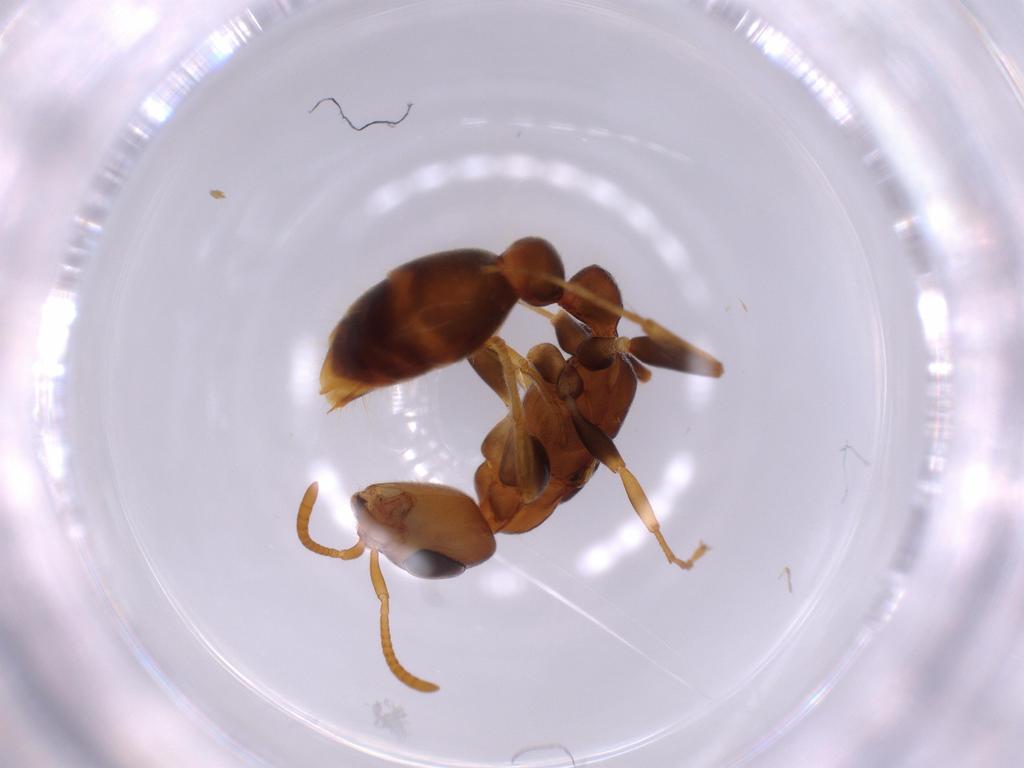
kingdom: Animalia
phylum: Arthropoda
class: Insecta
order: Hymenoptera
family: Formicidae
